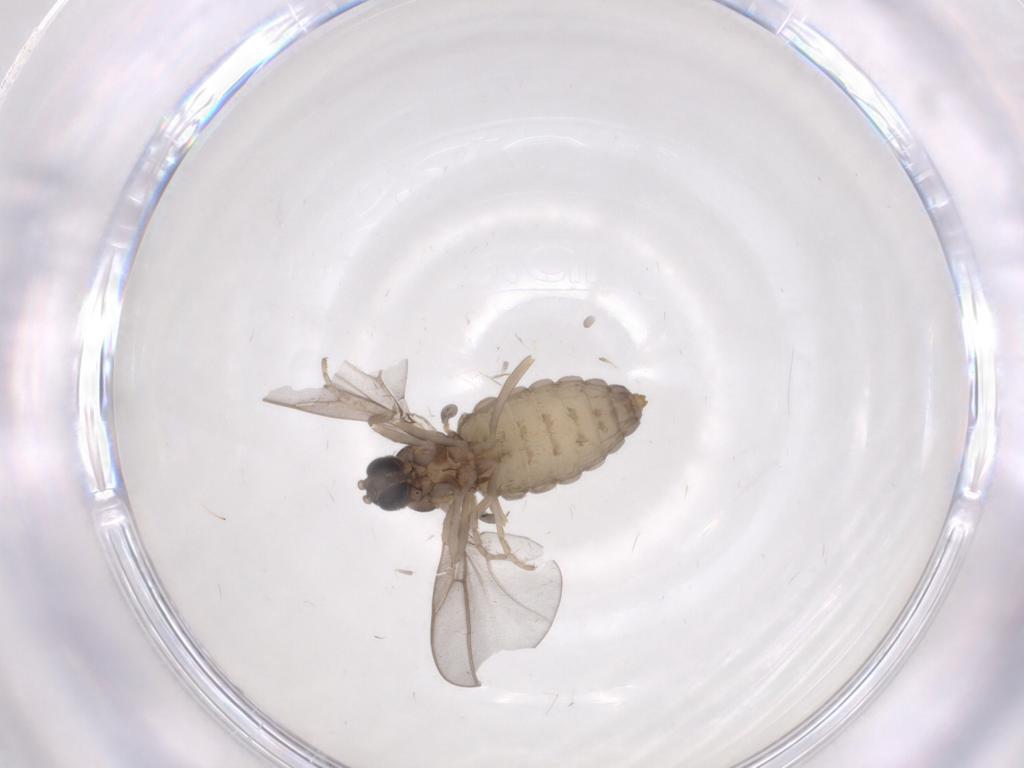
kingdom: Animalia
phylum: Arthropoda
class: Insecta
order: Diptera
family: Cecidomyiidae
